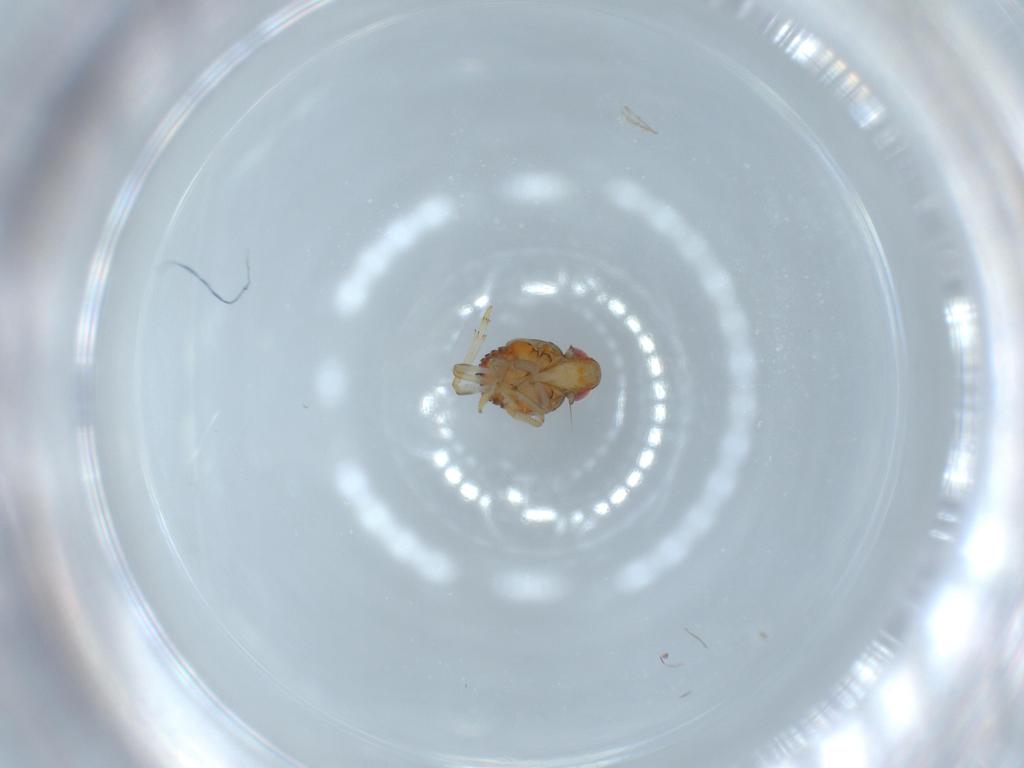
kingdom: Animalia
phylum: Arthropoda
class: Insecta
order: Hemiptera
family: Issidae
